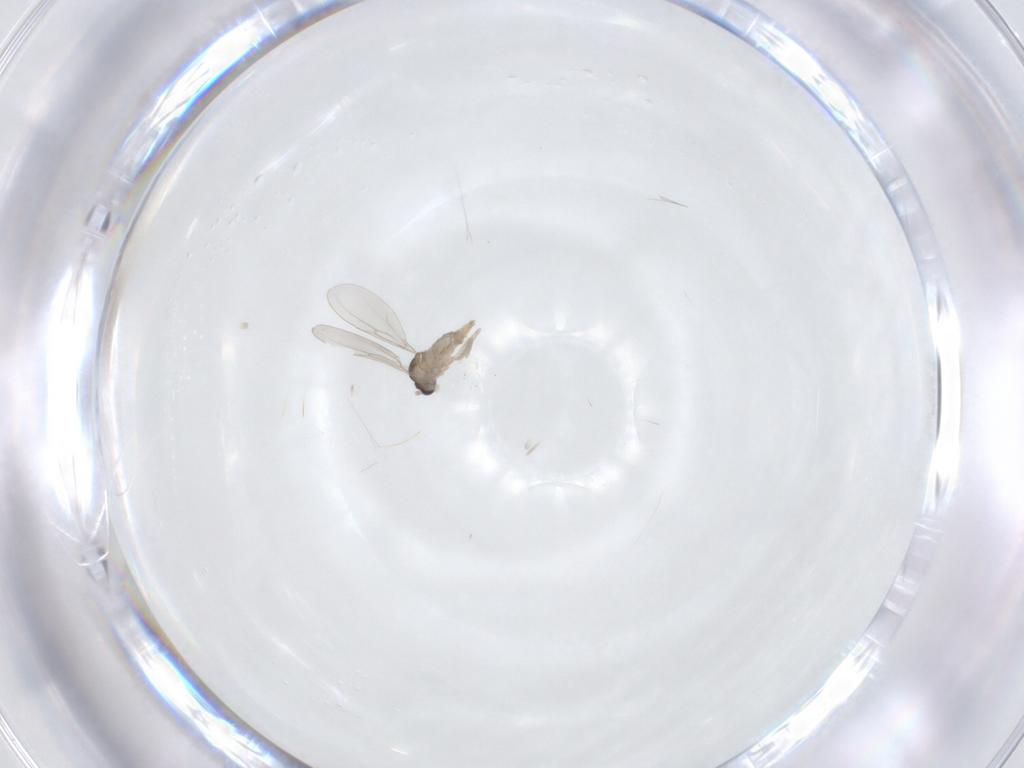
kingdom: Animalia
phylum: Arthropoda
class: Insecta
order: Diptera
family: Cecidomyiidae
